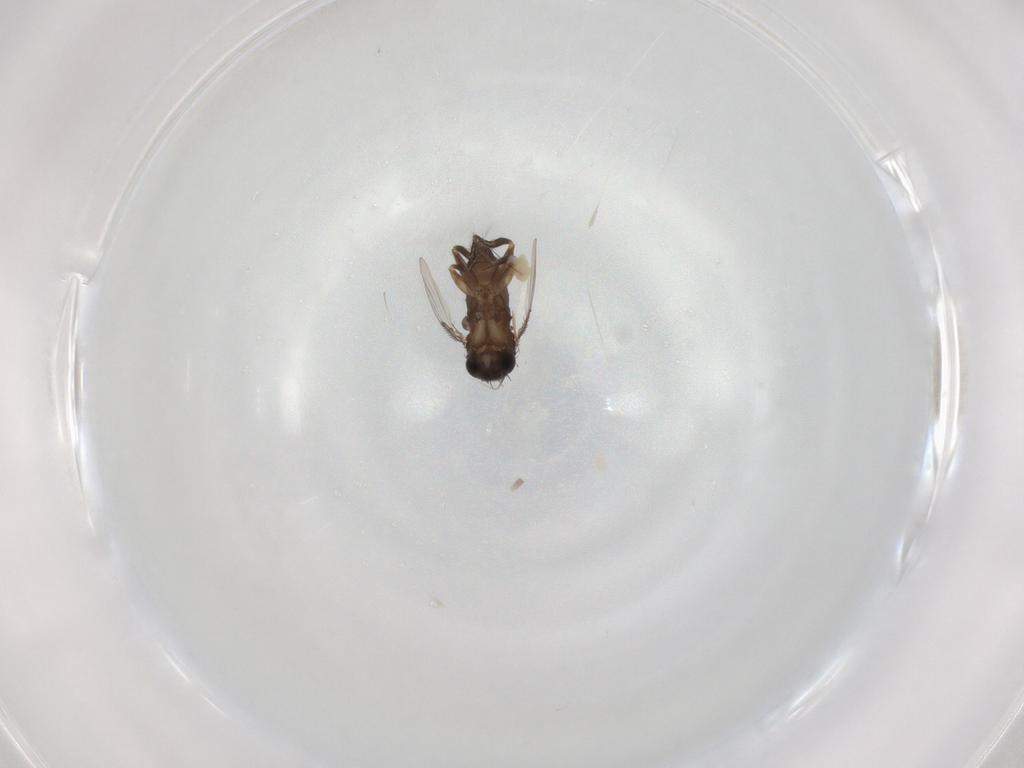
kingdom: Animalia
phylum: Arthropoda
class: Insecta
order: Diptera
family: Phoridae
